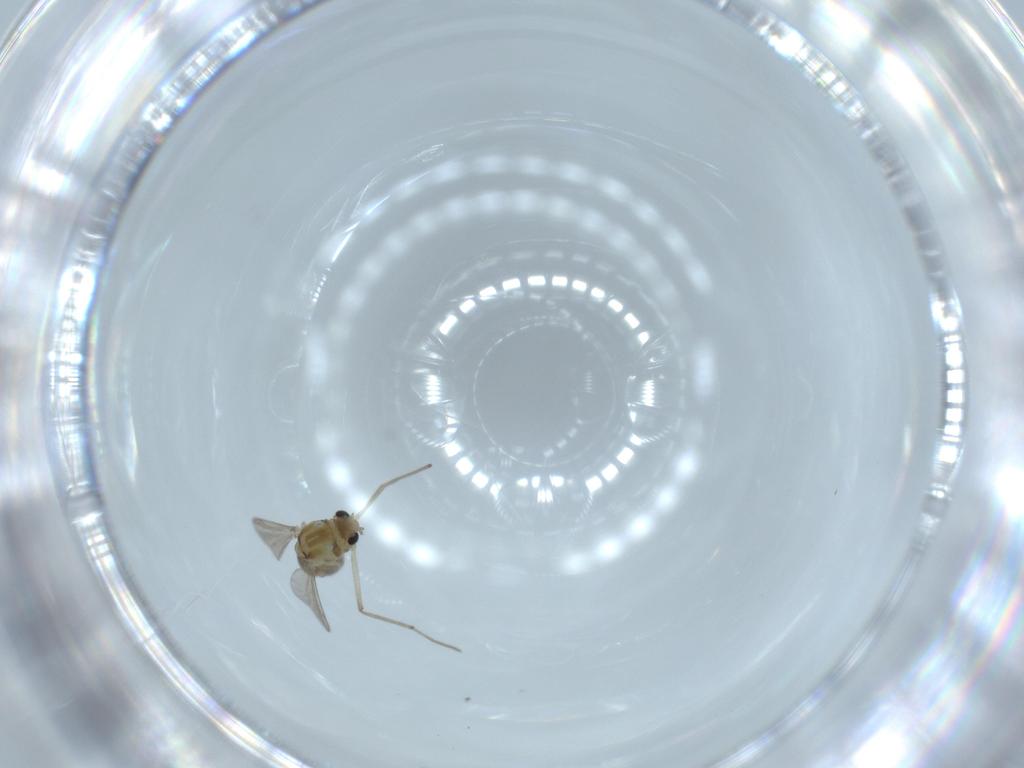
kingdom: Animalia
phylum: Arthropoda
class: Insecta
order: Diptera
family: Chironomidae
